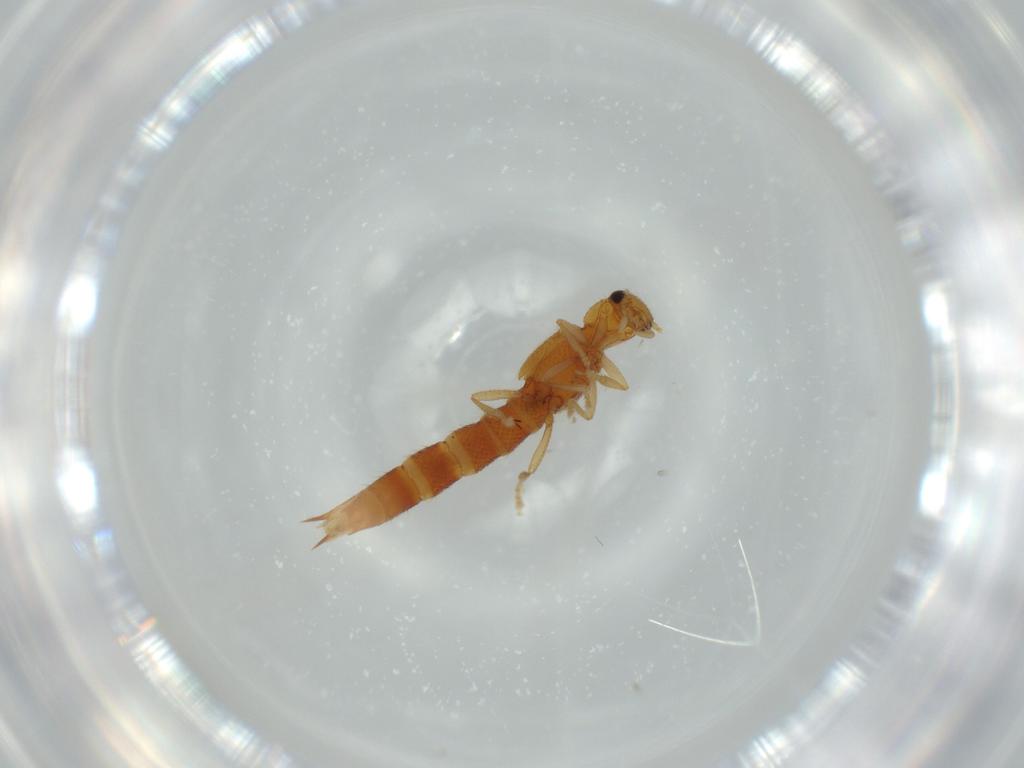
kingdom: Animalia
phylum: Arthropoda
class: Insecta
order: Coleoptera
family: Staphylinidae
